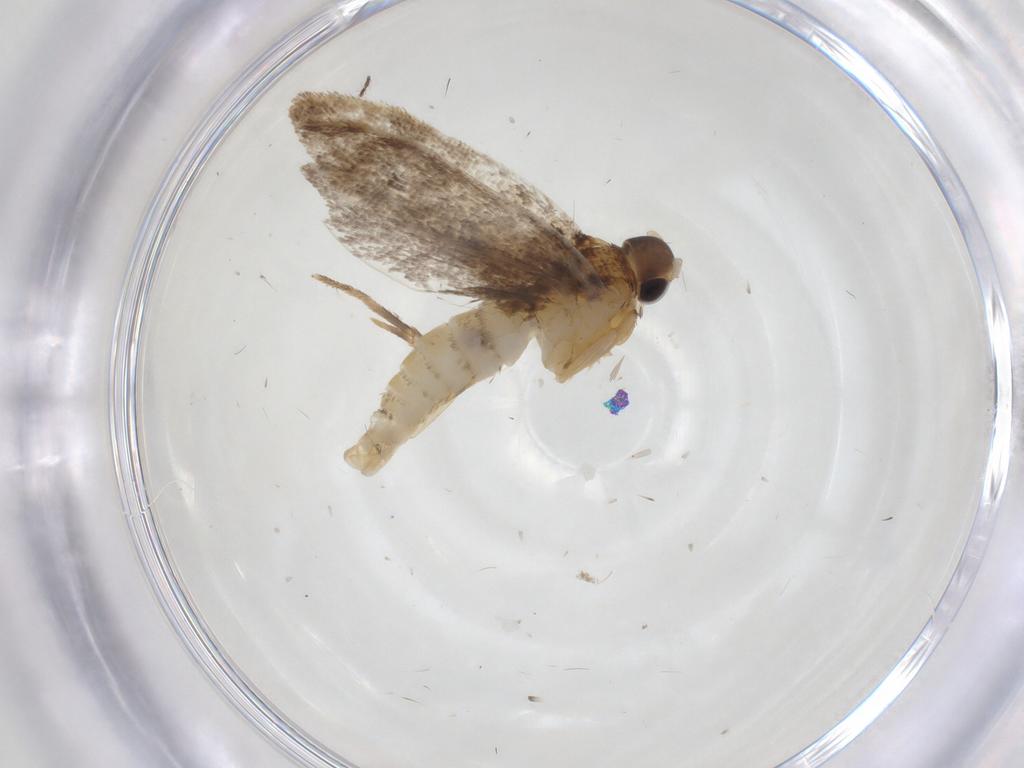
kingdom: Animalia
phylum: Arthropoda
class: Insecta
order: Lepidoptera
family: Oecophoridae
